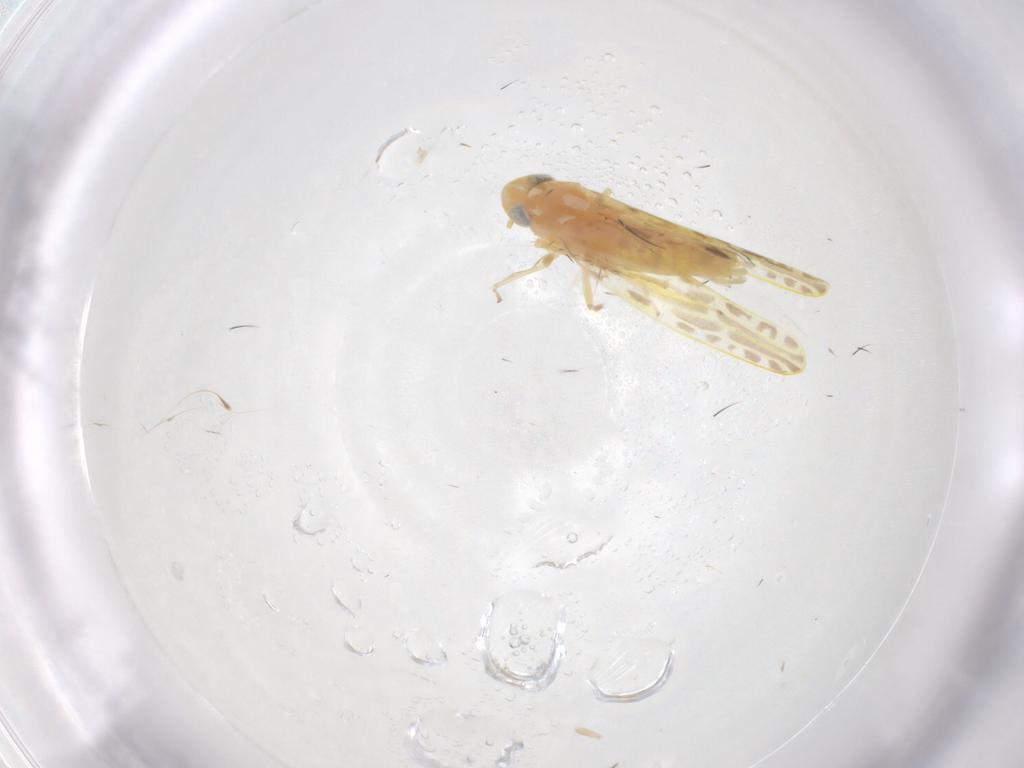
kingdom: Animalia
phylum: Arthropoda
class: Insecta
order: Hemiptera
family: Cicadellidae
